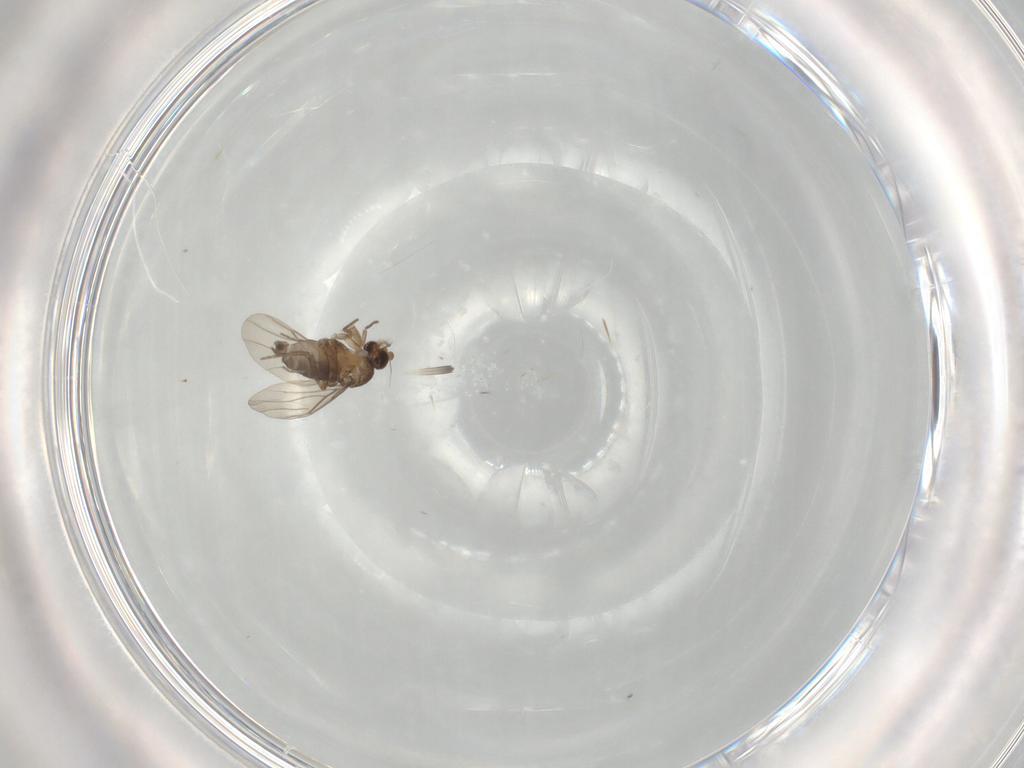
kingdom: Animalia
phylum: Arthropoda
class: Insecta
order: Diptera
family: Phoridae
